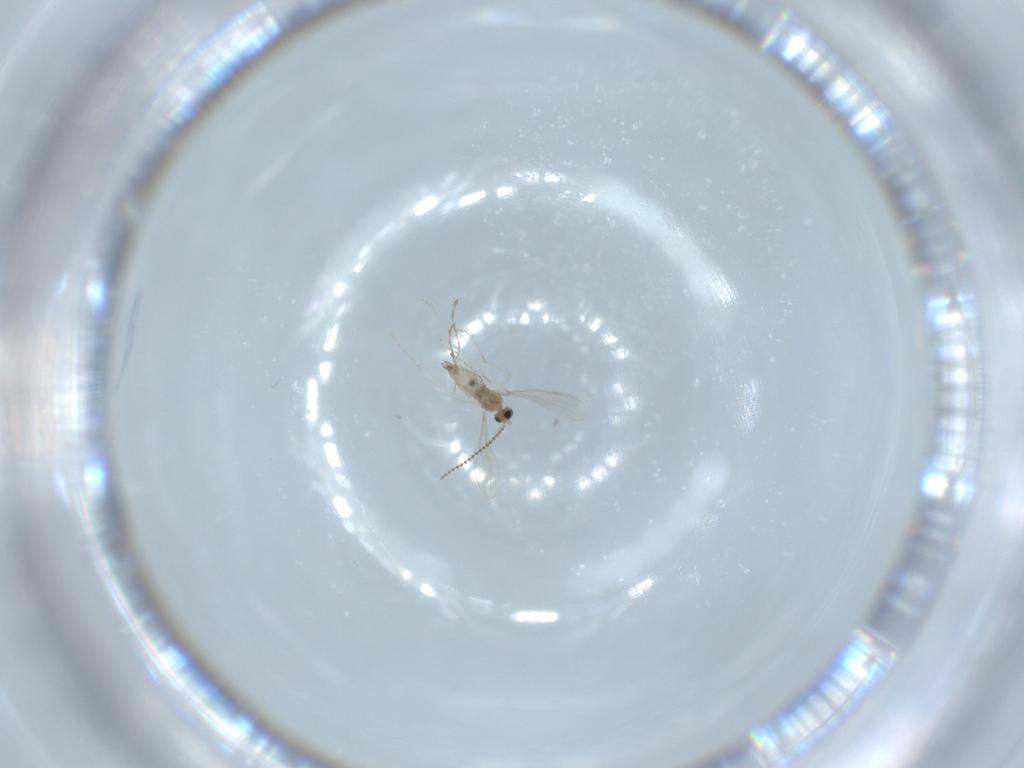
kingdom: Animalia
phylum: Arthropoda
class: Insecta
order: Diptera
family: Cecidomyiidae
